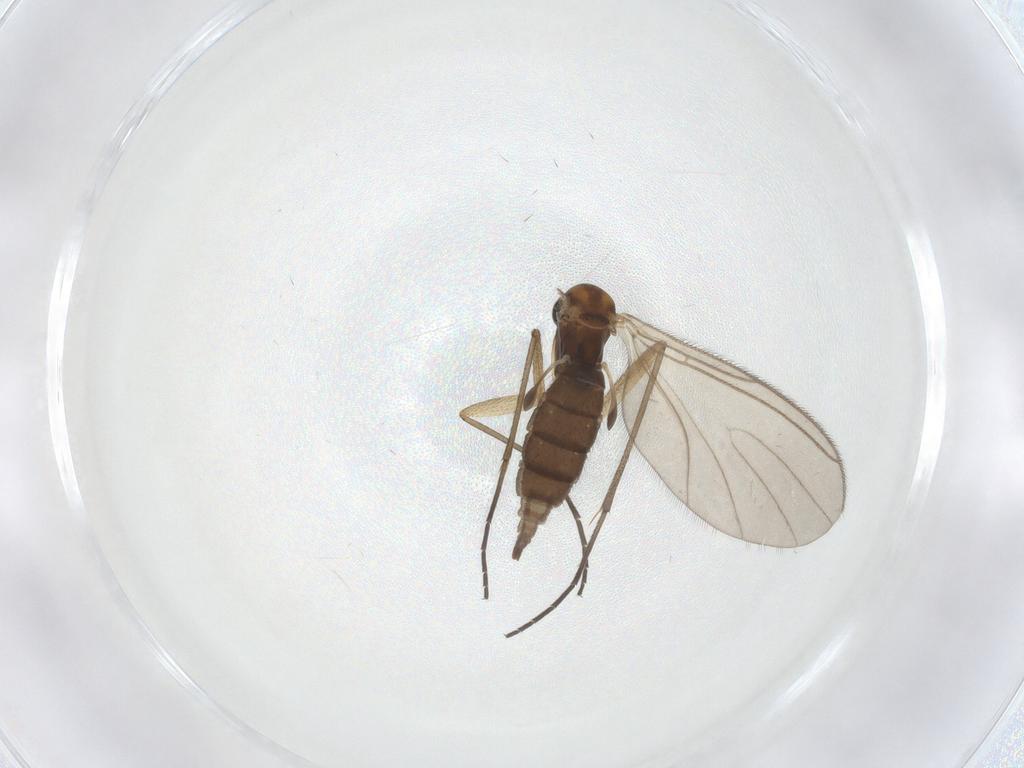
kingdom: Animalia
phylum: Arthropoda
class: Insecta
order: Diptera
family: Sciaridae
